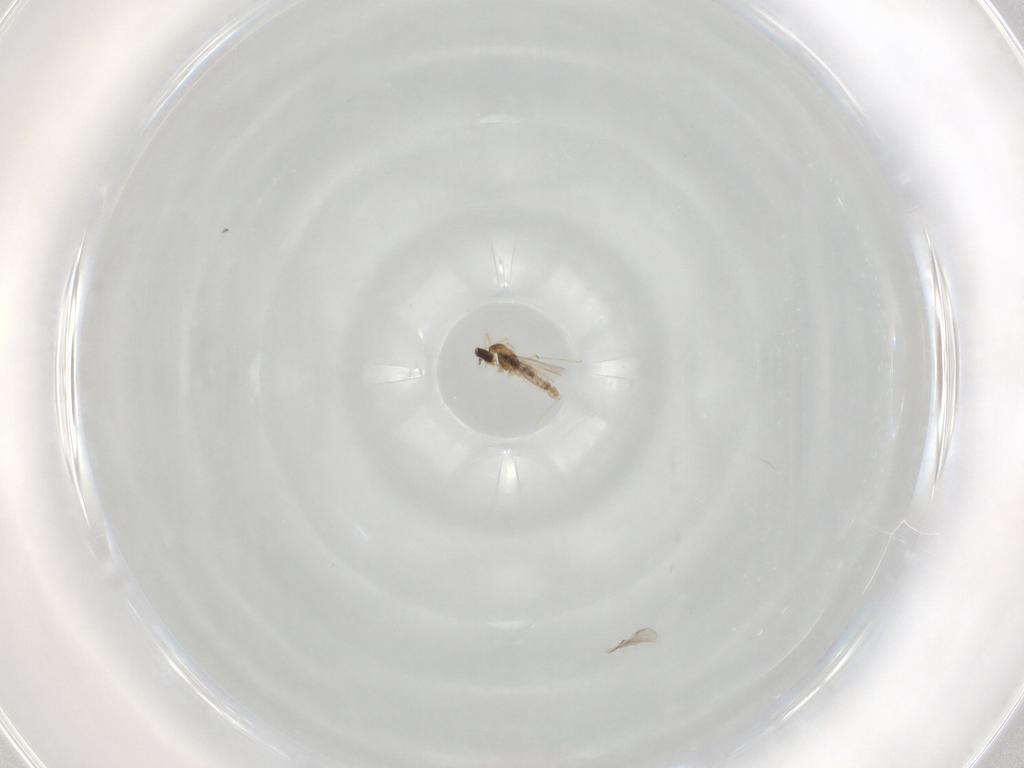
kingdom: Animalia
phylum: Arthropoda
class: Insecta
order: Diptera
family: Cecidomyiidae
